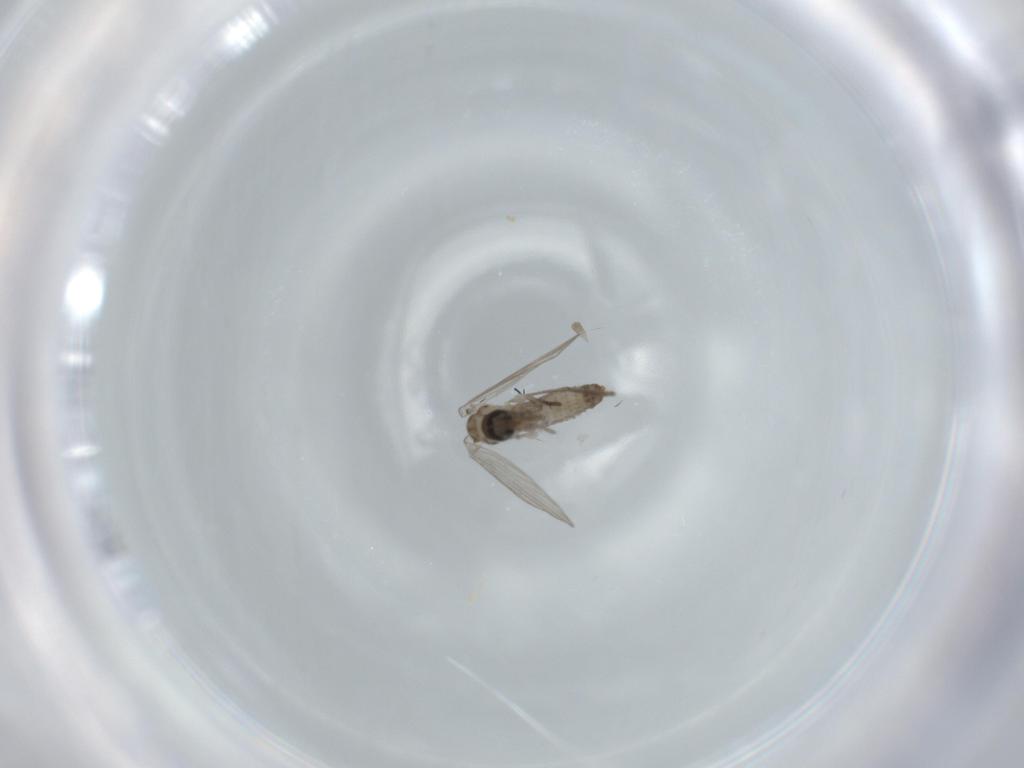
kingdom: Animalia
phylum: Arthropoda
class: Insecta
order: Diptera
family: Psychodidae
